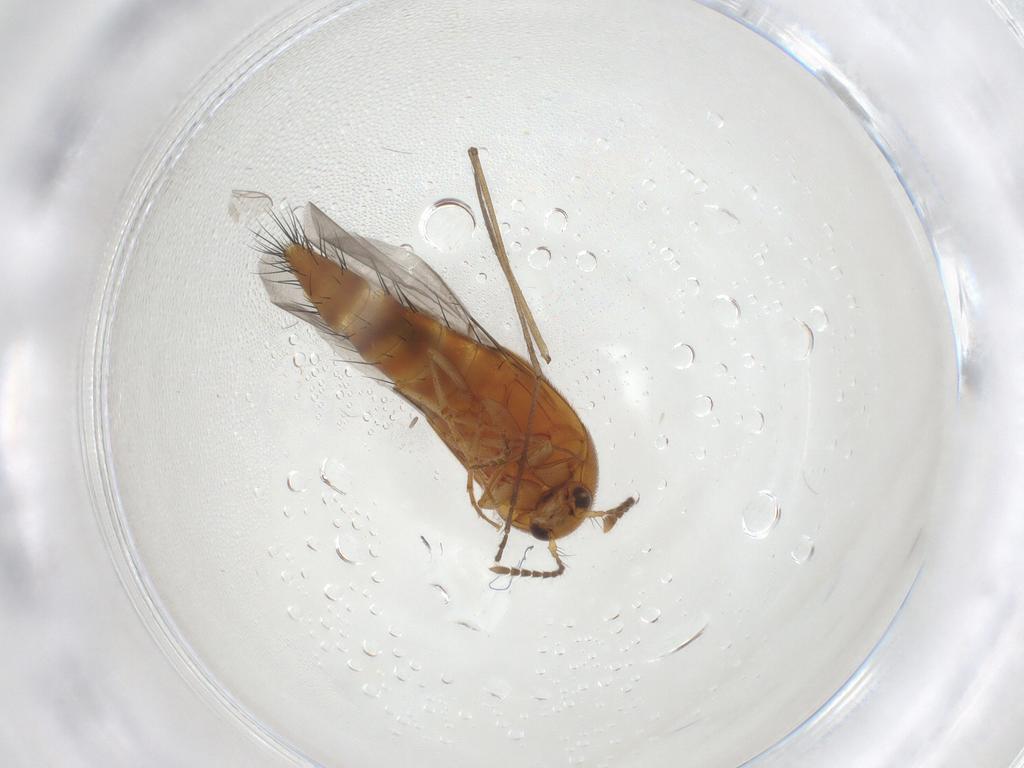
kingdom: Animalia
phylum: Arthropoda
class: Insecta
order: Coleoptera
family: Staphylinidae
